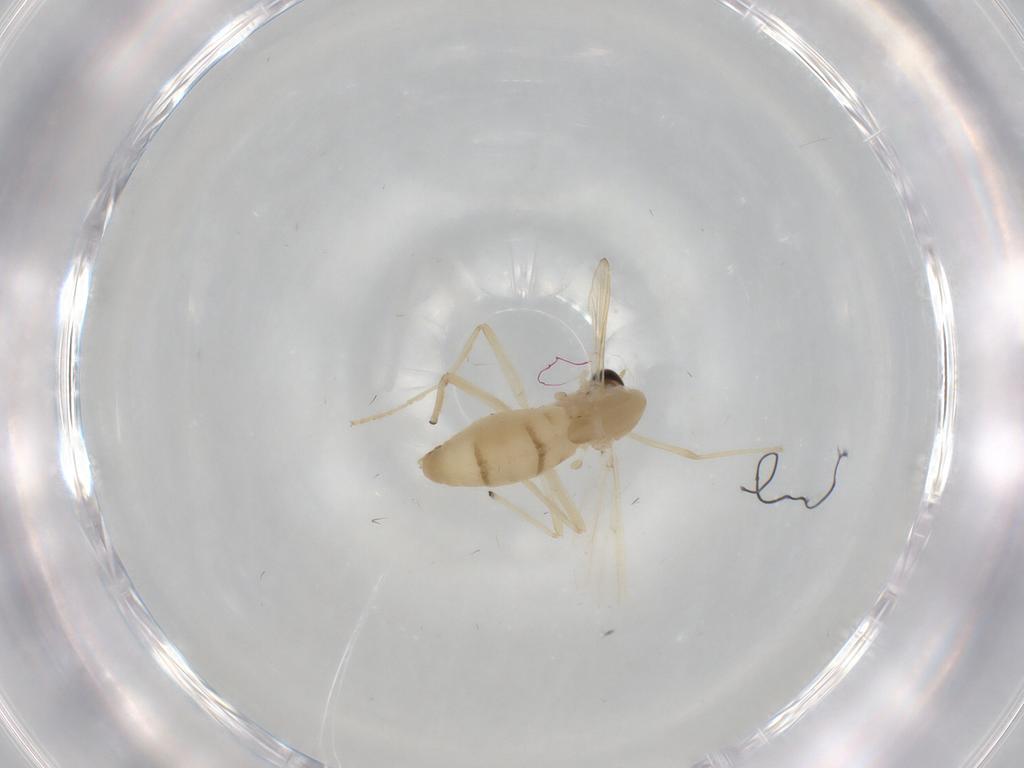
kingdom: Animalia
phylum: Arthropoda
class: Insecta
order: Diptera
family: Chironomidae
